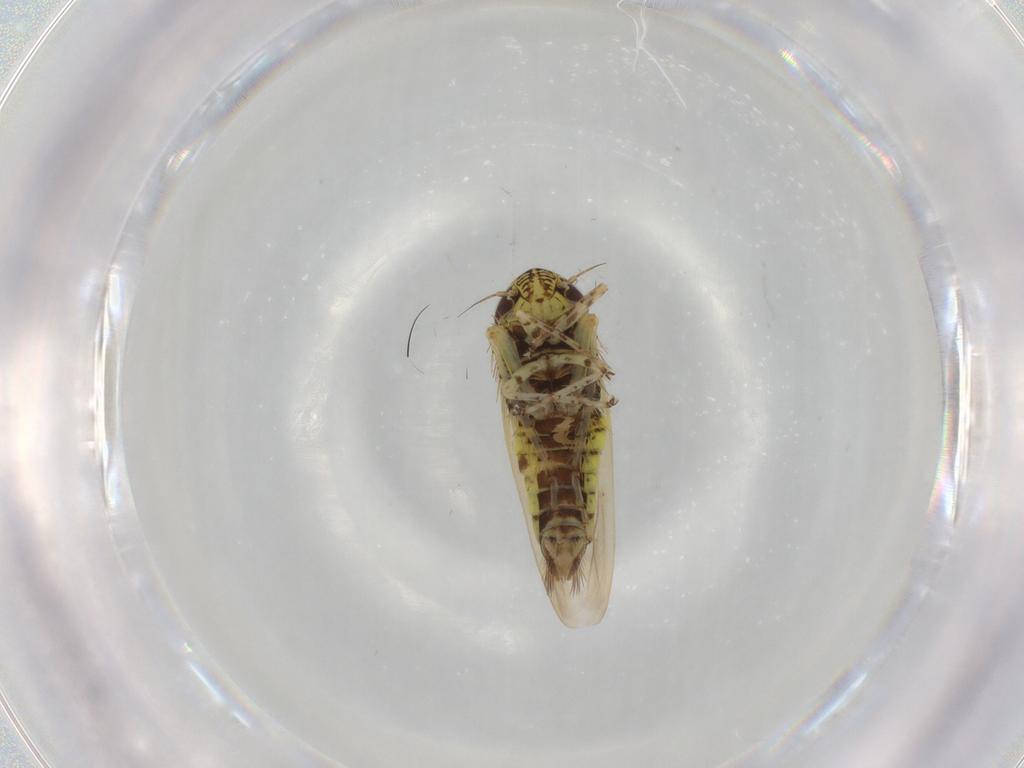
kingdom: Animalia
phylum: Arthropoda
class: Insecta
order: Hemiptera
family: Cicadellidae
